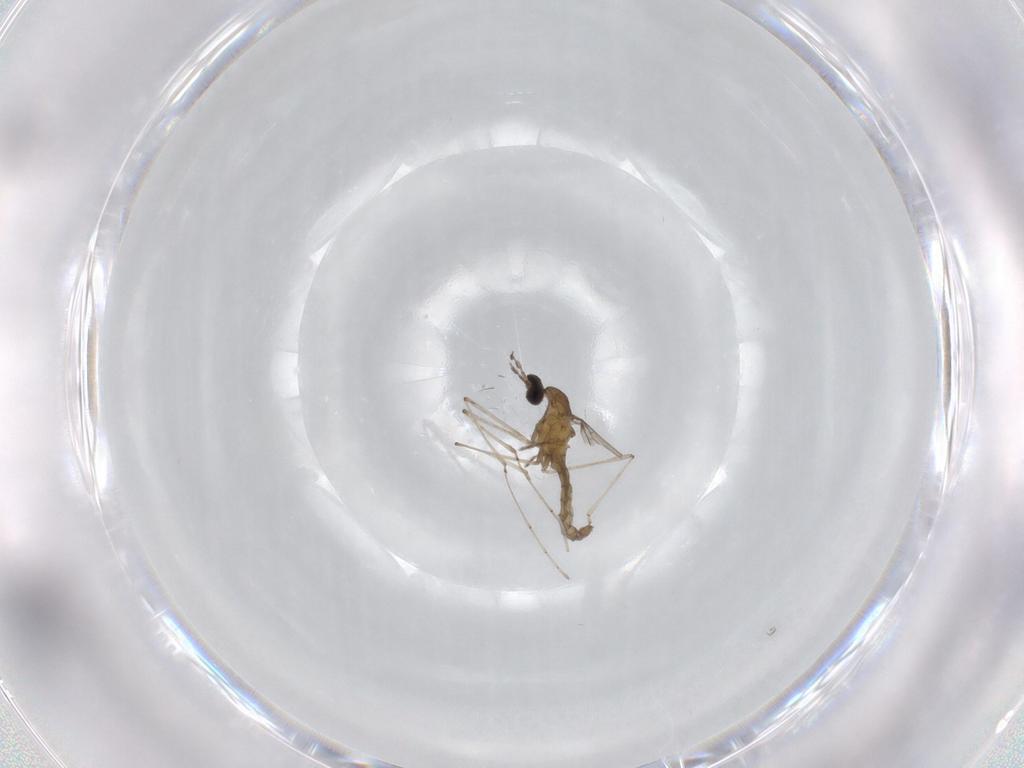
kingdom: Animalia
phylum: Arthropoda
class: Insecta
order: Diptera
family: Cecidomyiidae
